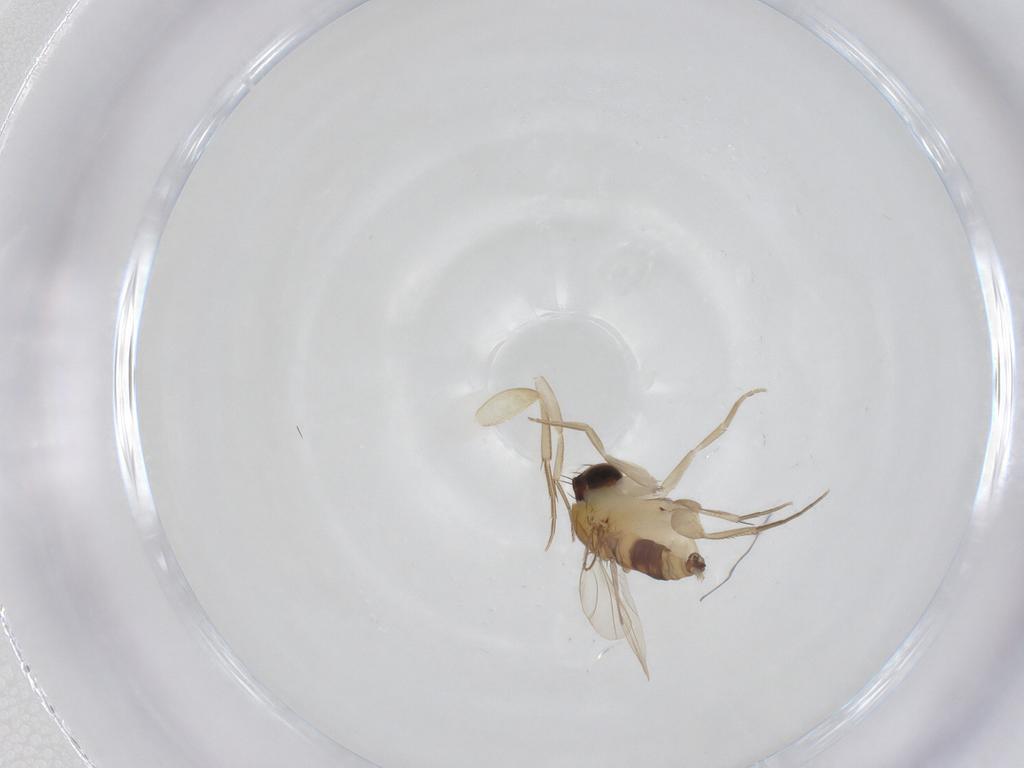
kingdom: Animalia
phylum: Arthropoda
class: Insecta
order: Diptera
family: Phoridae
